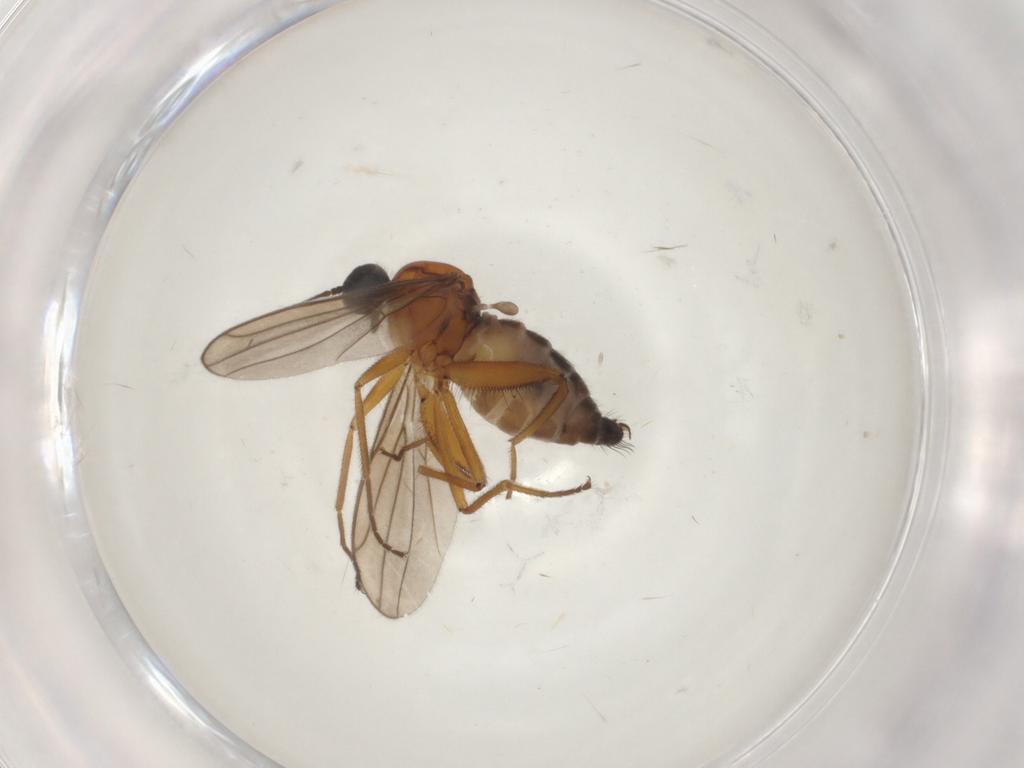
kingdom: Animalia
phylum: Arthropoda
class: Insecta
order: Diptera
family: Hybotidae
